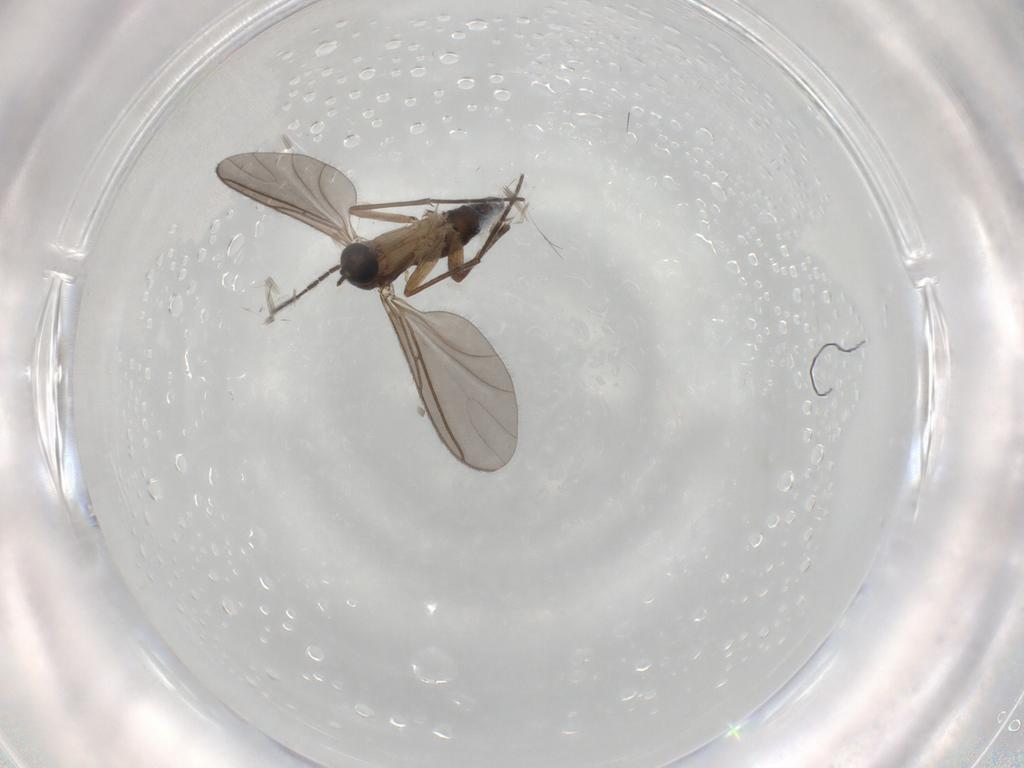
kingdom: Animalia
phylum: Arthropoda
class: Insecta
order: Diptera
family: Sciaridae
